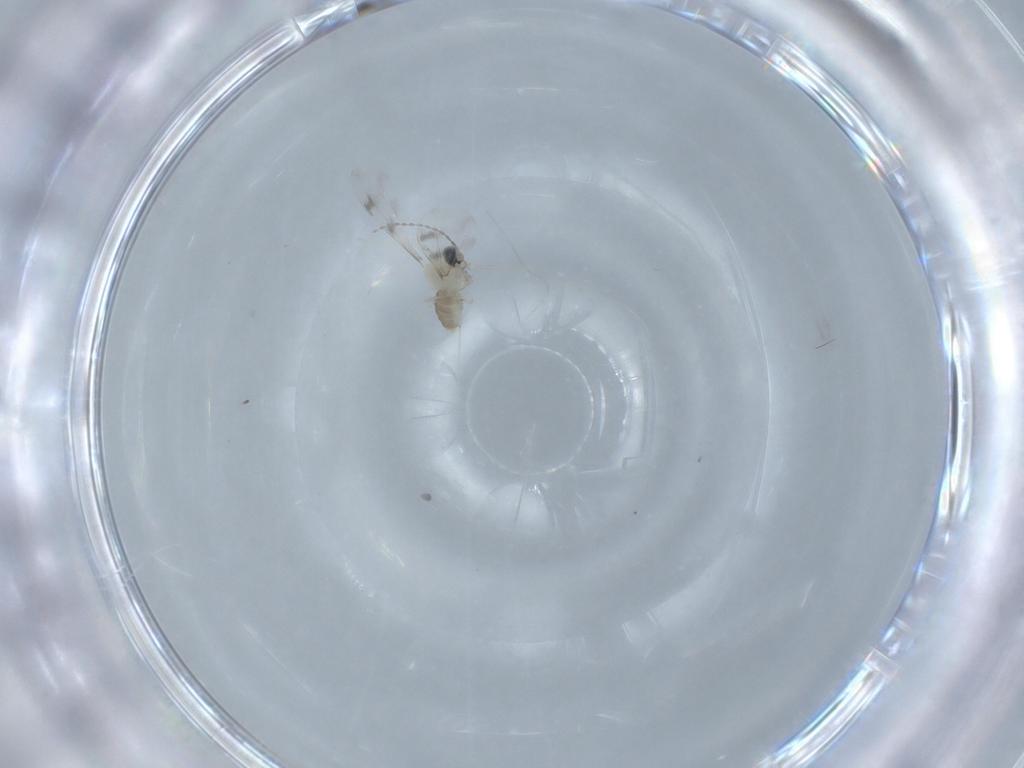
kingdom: Animalia
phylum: Arthropoda
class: Insecta
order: Diptera
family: Cecidomyiidae
